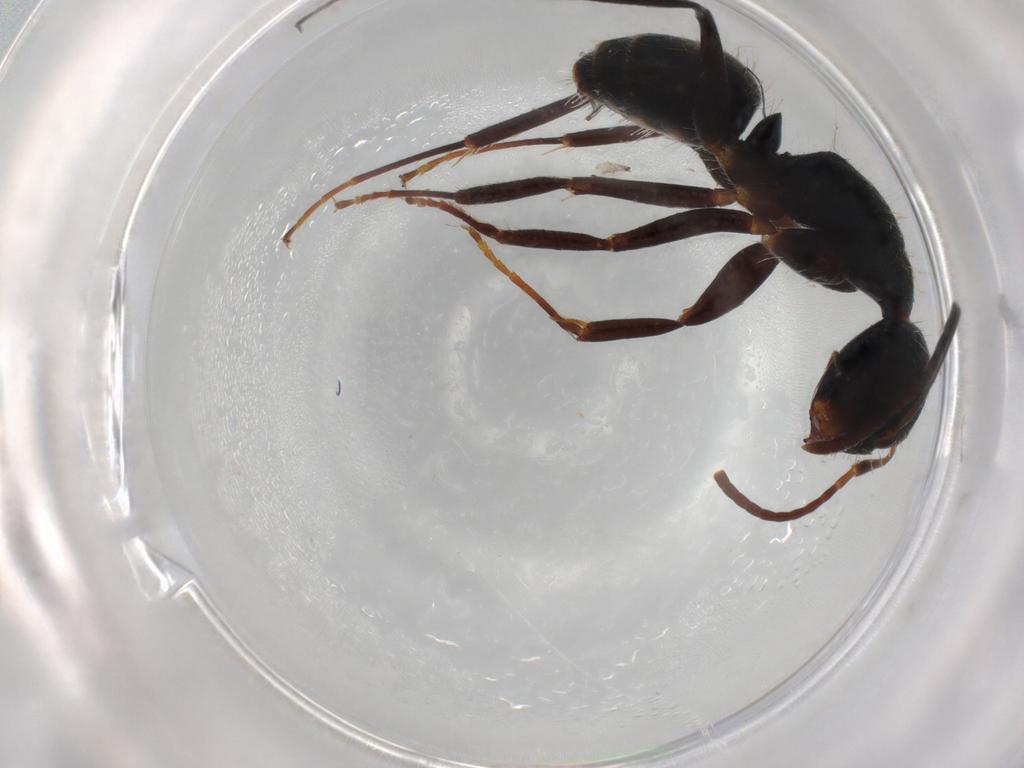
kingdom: Animalia
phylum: Arthropoda
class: Insecta
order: Hymenoptera
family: Formicidae
